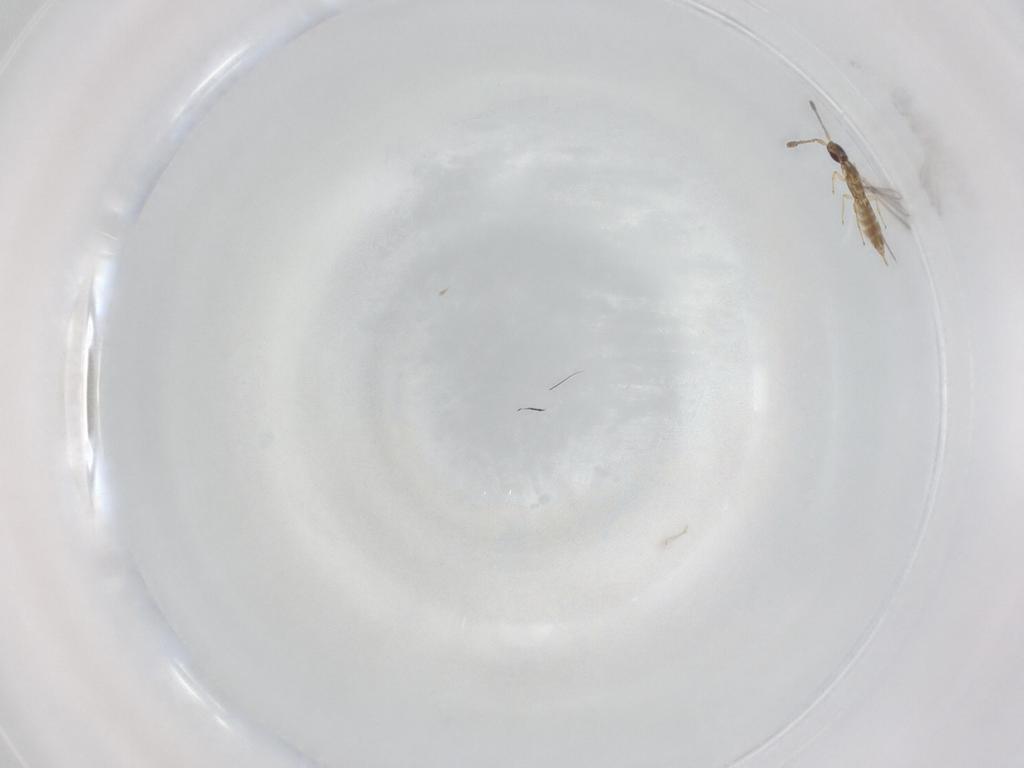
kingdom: Animalia
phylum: Arthropoda
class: Insecta
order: Hymenoptera
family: Mymaridae
